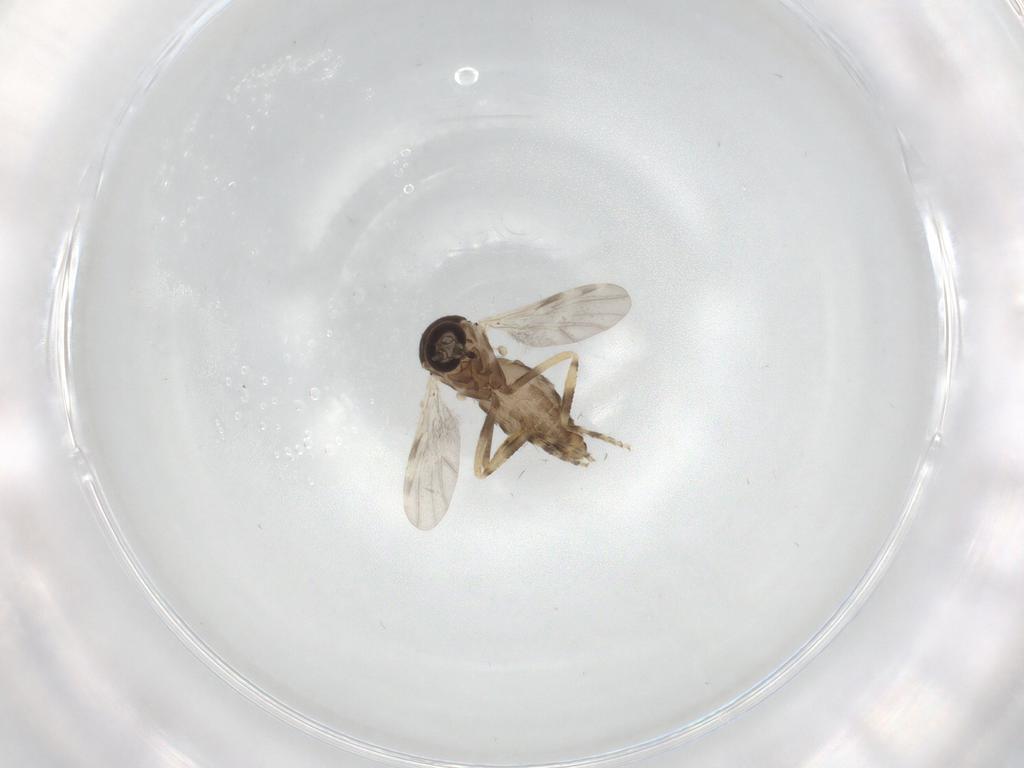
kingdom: Animalia
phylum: Arthropoda
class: Insecta
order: Diptera
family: Ceratopogonidae
